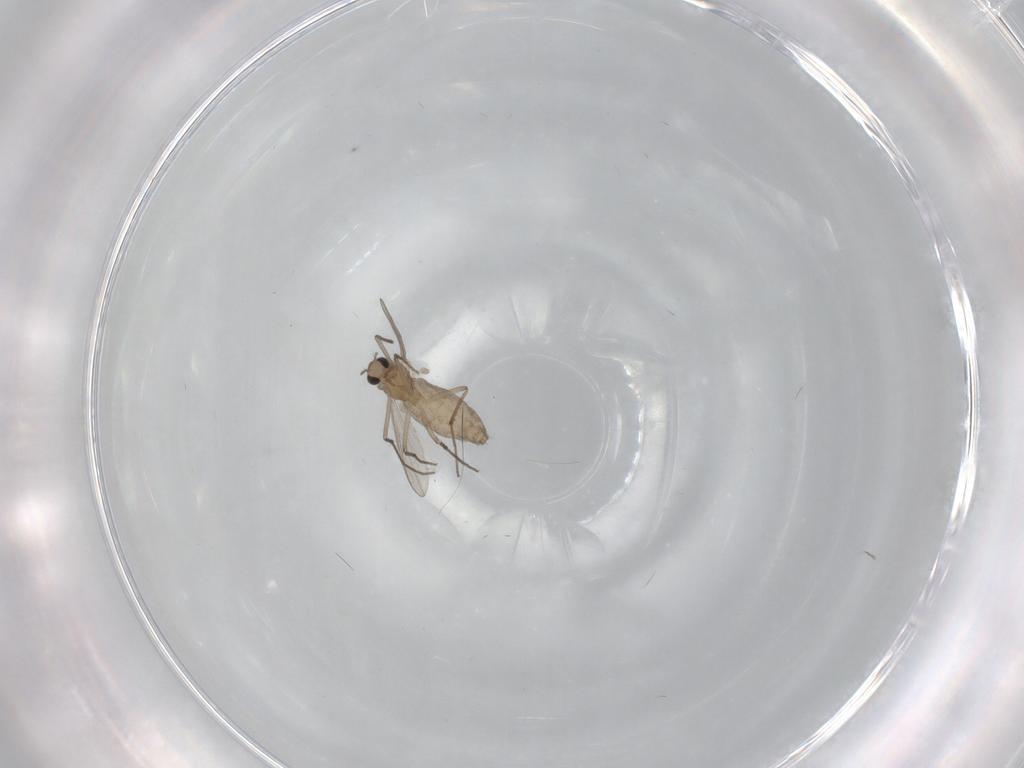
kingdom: Animalia
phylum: Arthropoda
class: Insecta
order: Diptera
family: Chironomidae
